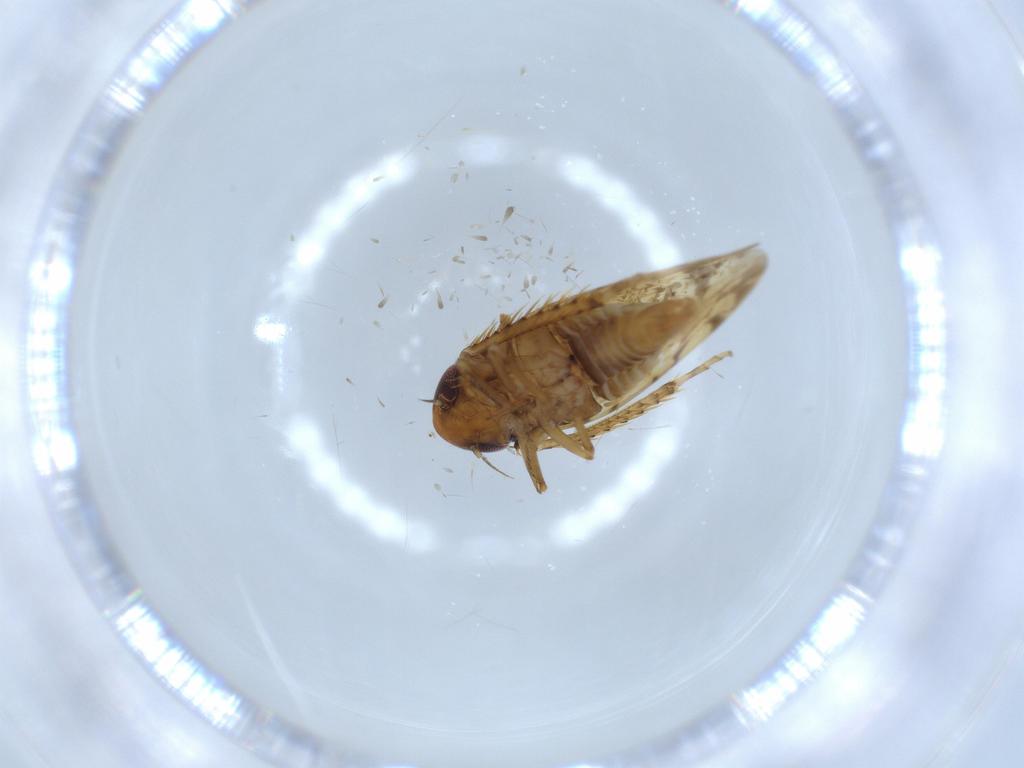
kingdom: Animalia
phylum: Arthropoda
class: Insecta
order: Hemiptera
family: Cicadellidae
